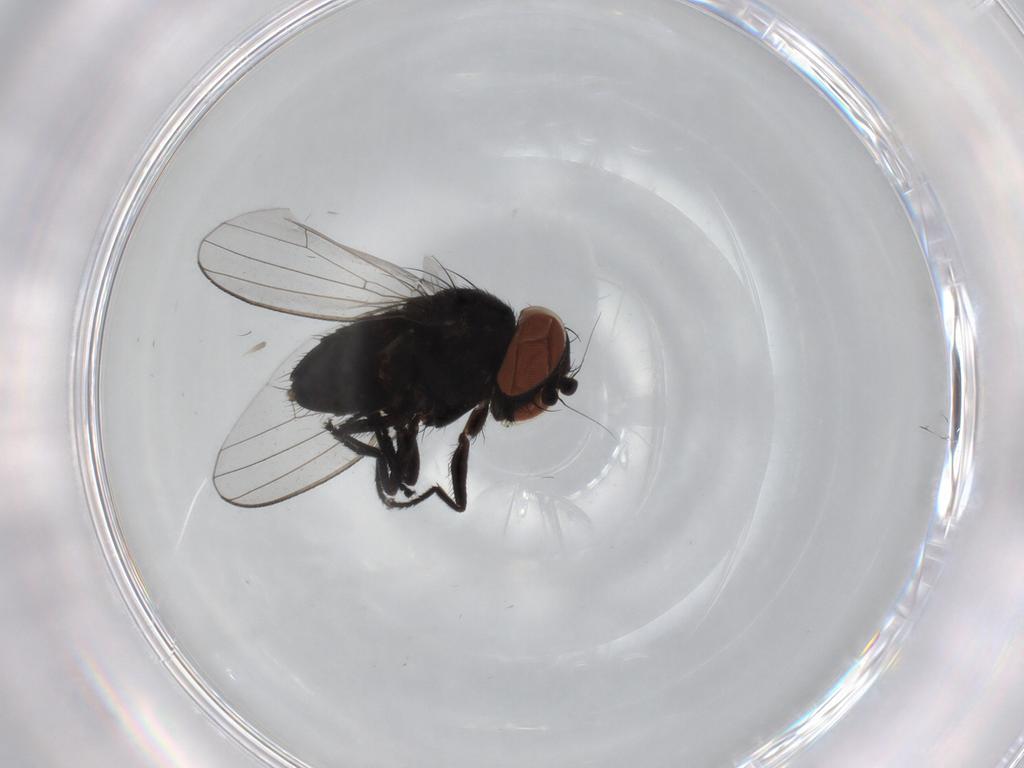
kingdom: Animalia
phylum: Arthropoda
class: Insecta
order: Diptera
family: Milichiidae
